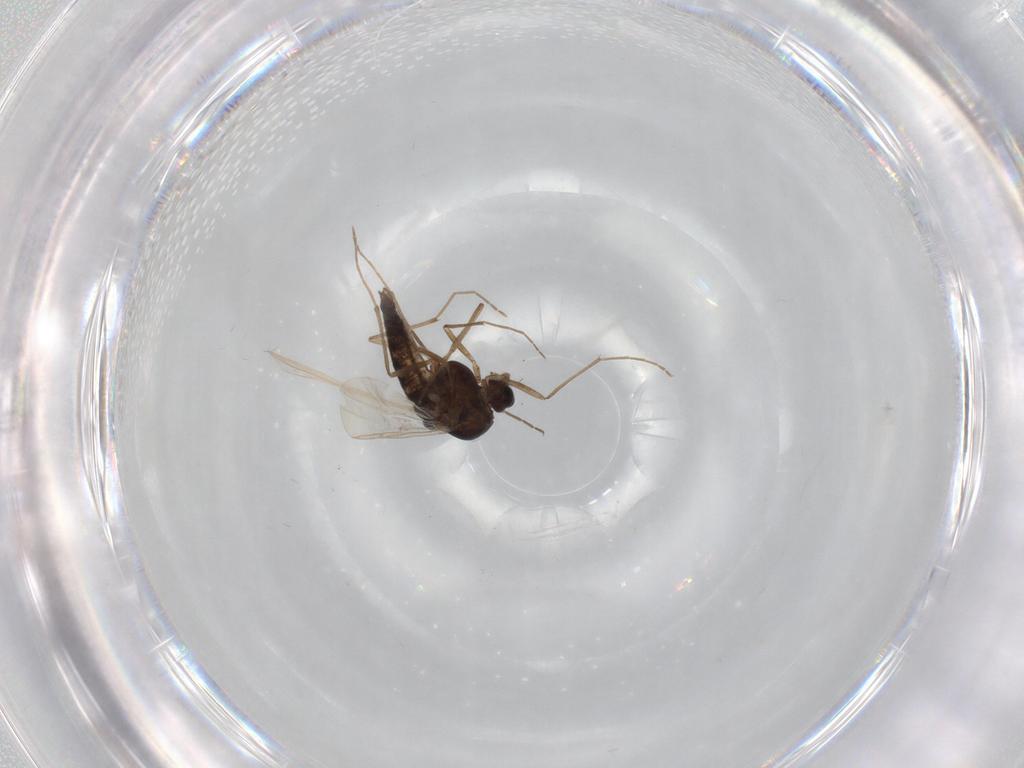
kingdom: Animalia
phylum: Arthropoda
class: Insecta
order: Diptera
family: Chironomidae
